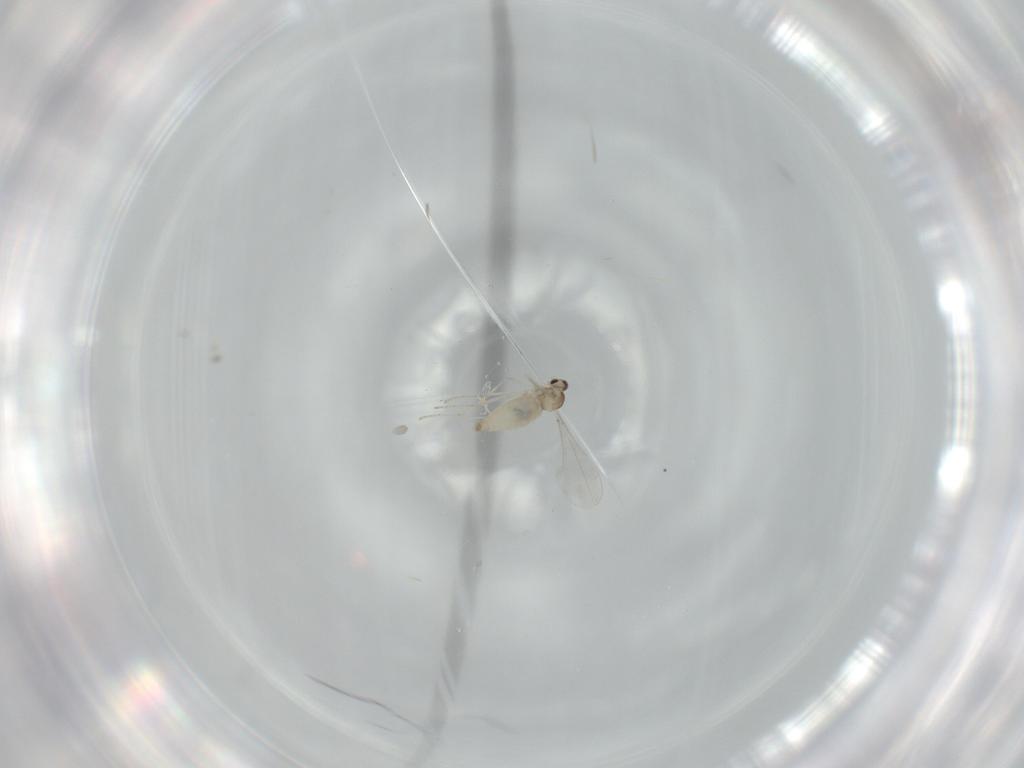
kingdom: Animalia
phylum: Arthropoda
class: Insecta
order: Diptera
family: Cecidomyiidae
